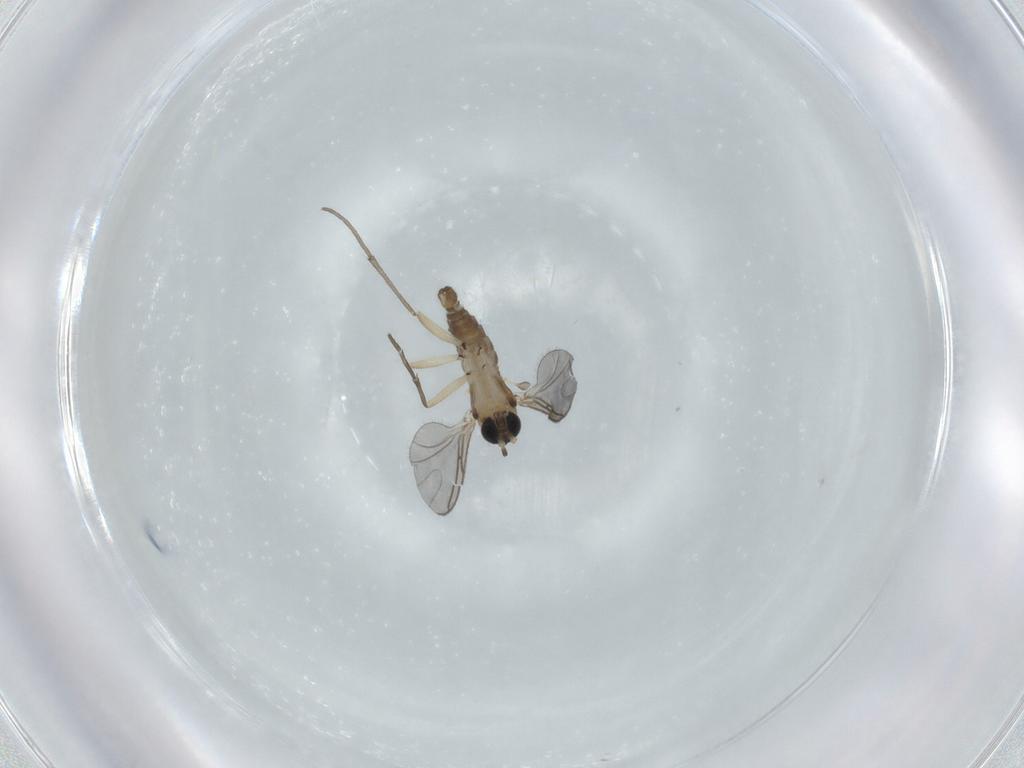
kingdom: Animalia
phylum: Arthropoda
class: Insecta
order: Diptera
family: Sciaridae
